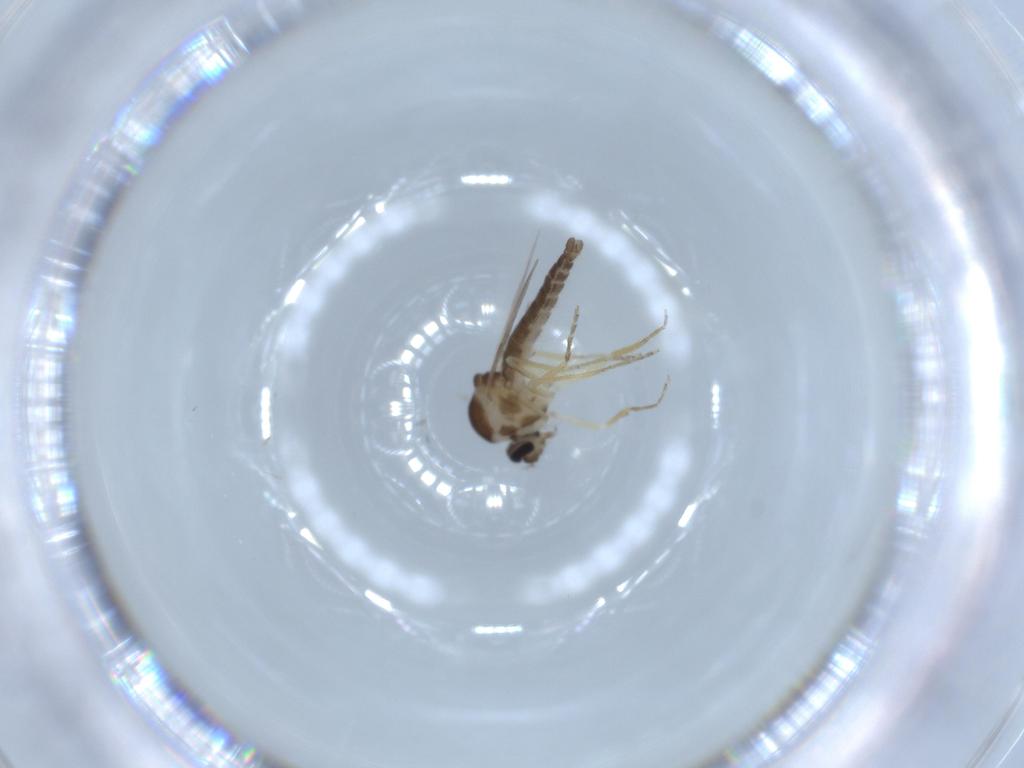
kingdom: Animalia
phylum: Arthropoda
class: Insecta
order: Diptera
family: Ceratopogonidae
